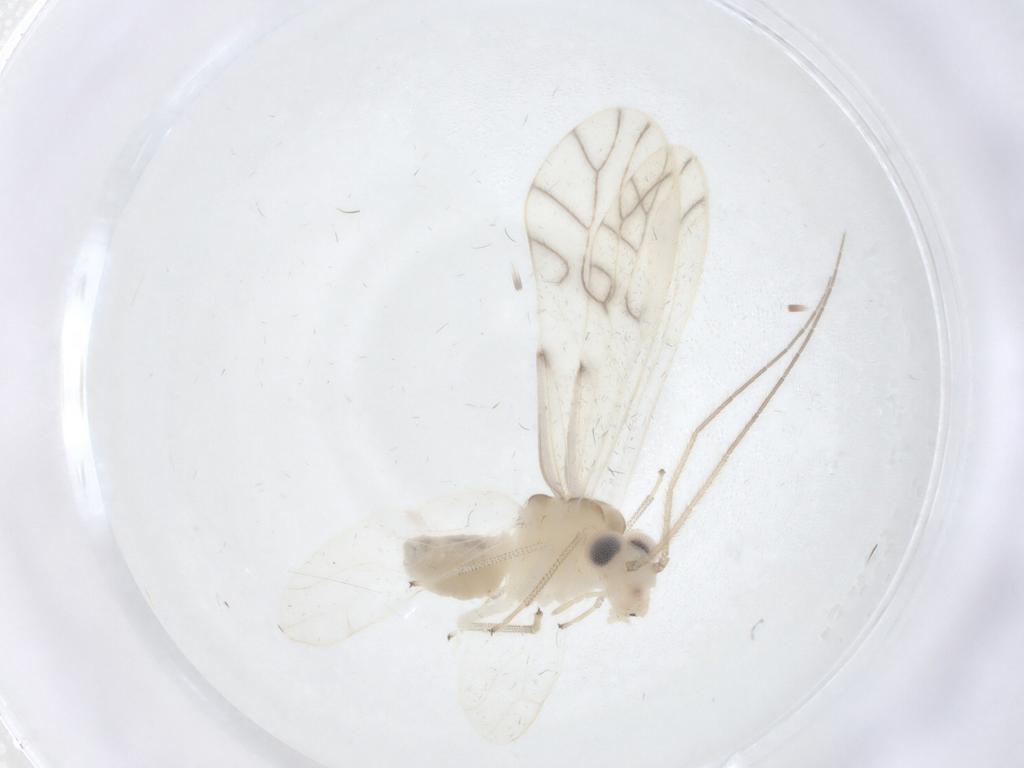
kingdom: Animalia
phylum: Arthropoda
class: Insecta
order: Psocodea
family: Caeciliusidae
